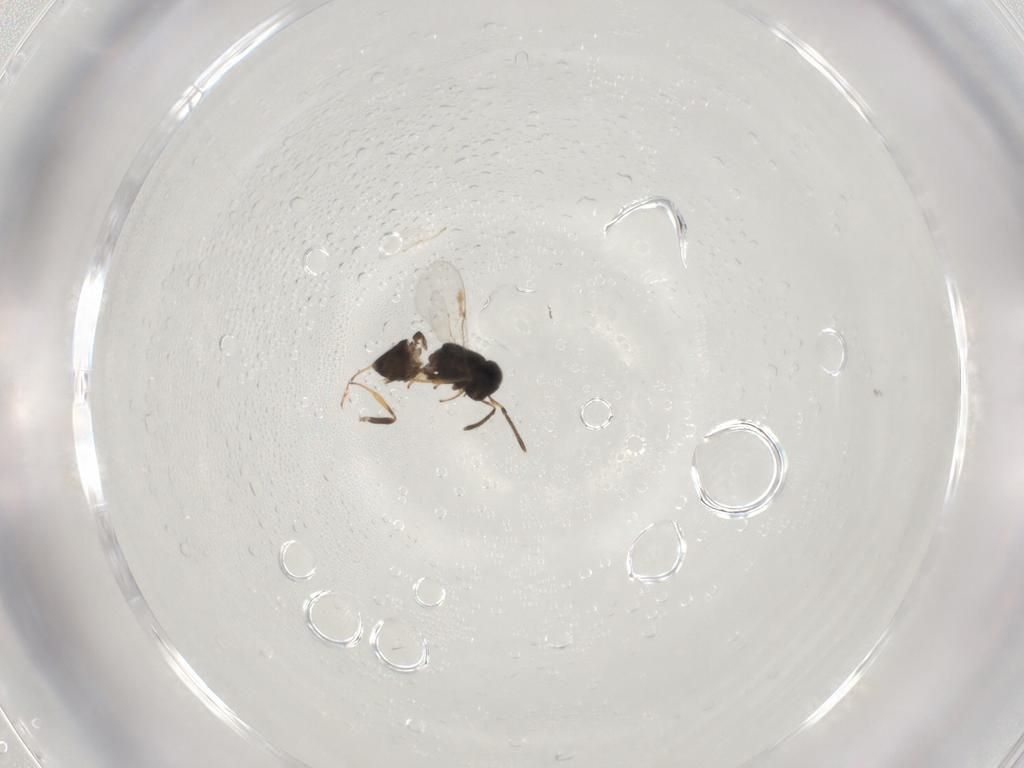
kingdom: Animalia
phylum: Arthropoda
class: Insecta
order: Coleoptera
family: Corylophidae
